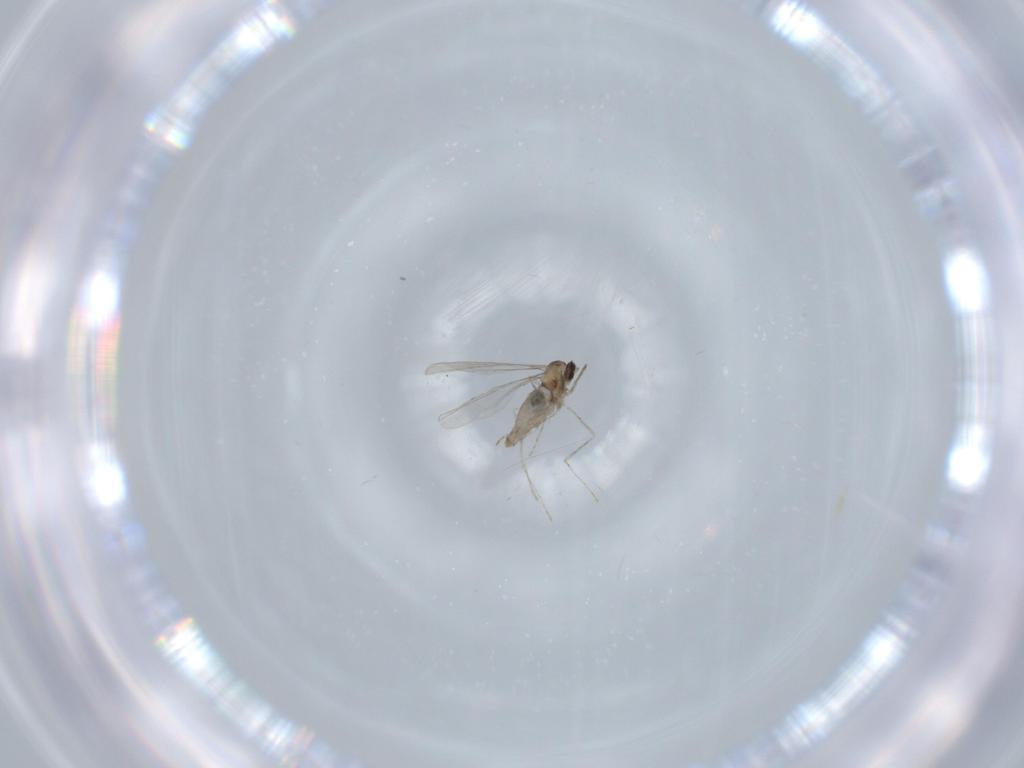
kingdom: Animalia
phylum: Arthropoda
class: Insecta
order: Diptera
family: Cecidomyiidae
